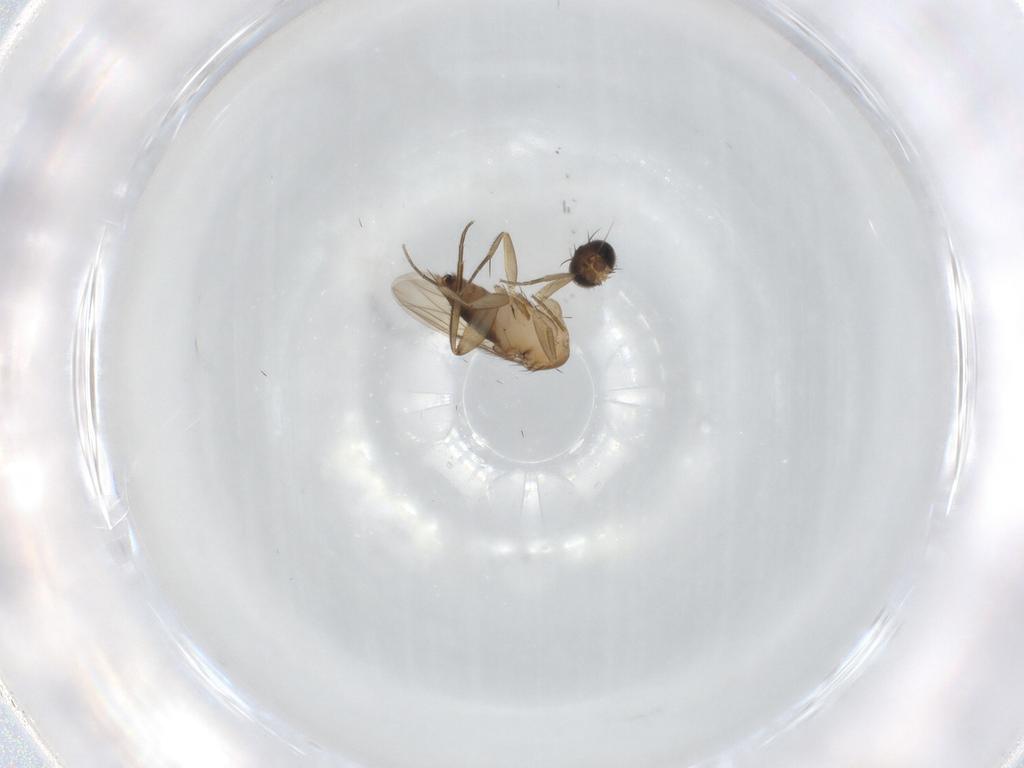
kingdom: Animalia
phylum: Arthropoda
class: Insecta
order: Diptera
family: Phoridae
